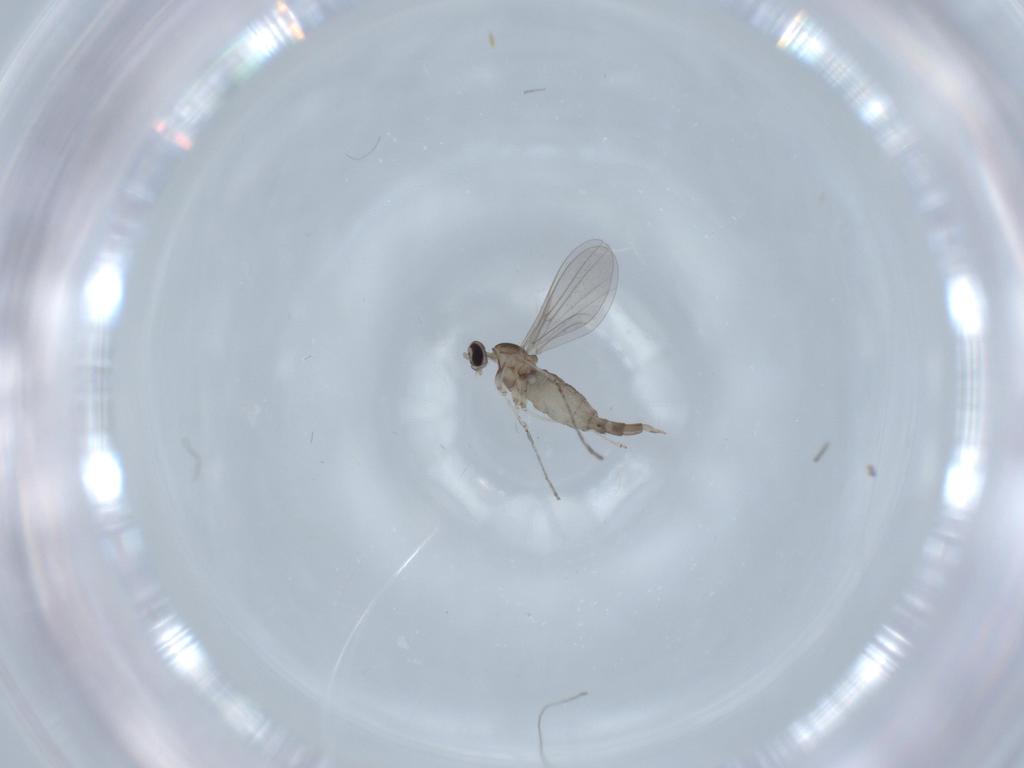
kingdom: Animalia
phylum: Arthropoda
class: Insecta
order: Diptera
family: Cecidomyiidae
